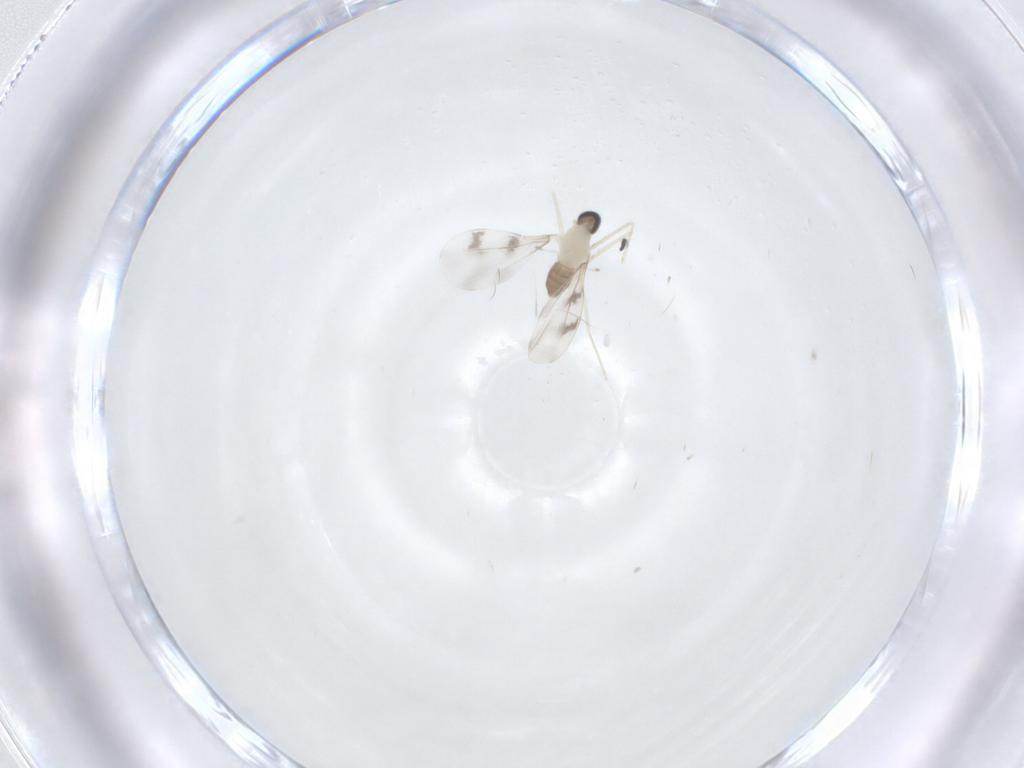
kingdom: Animalia
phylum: Arthropoda
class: Insecta
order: Diptera
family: Cecidomyiidae
